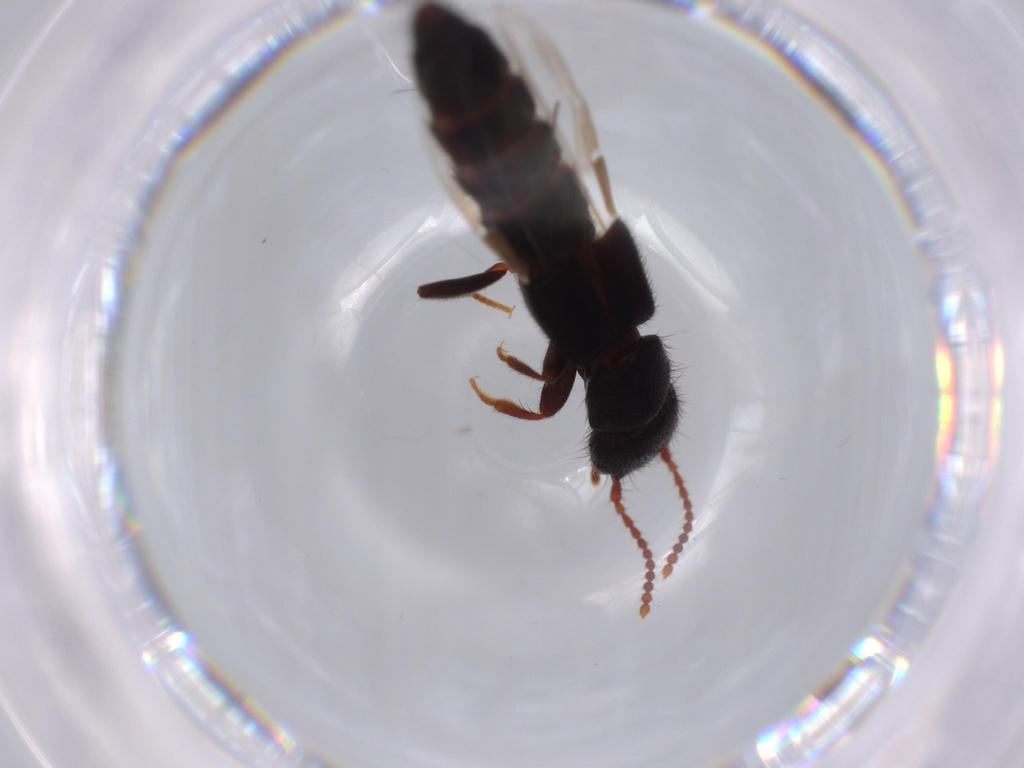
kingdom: Animalia
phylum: Arthropoda
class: Insecta
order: Coleoptera
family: Staphylinidae
